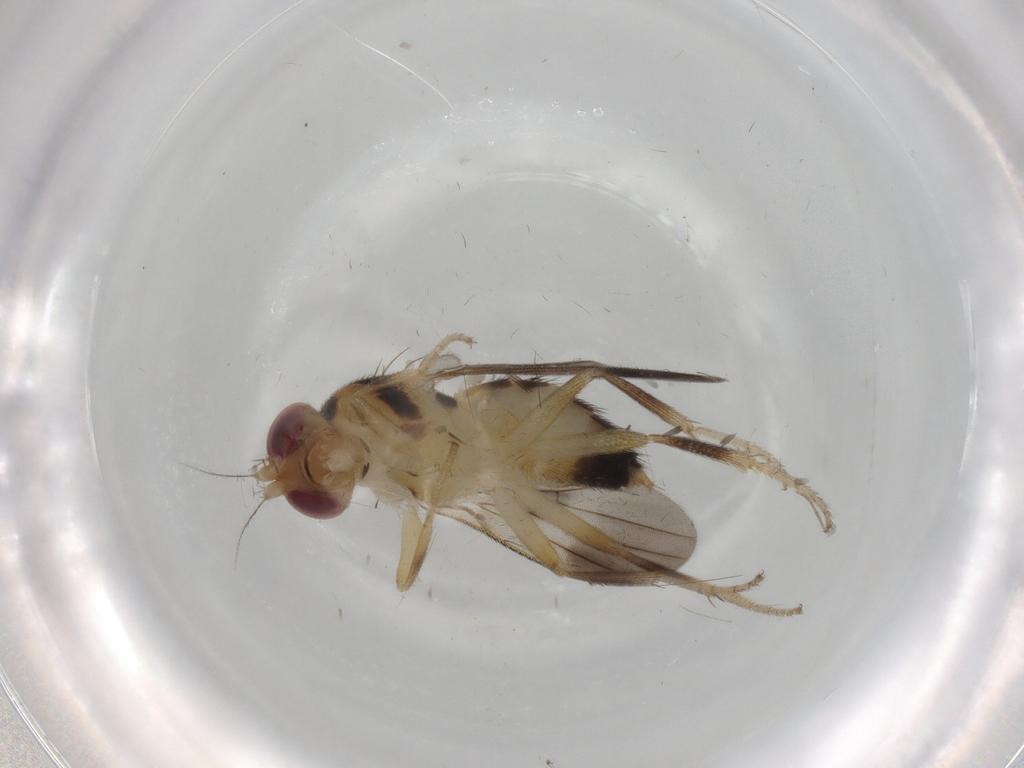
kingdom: Animalia
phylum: Arthropoda
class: Insecta
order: Diptera
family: Clusiidae
